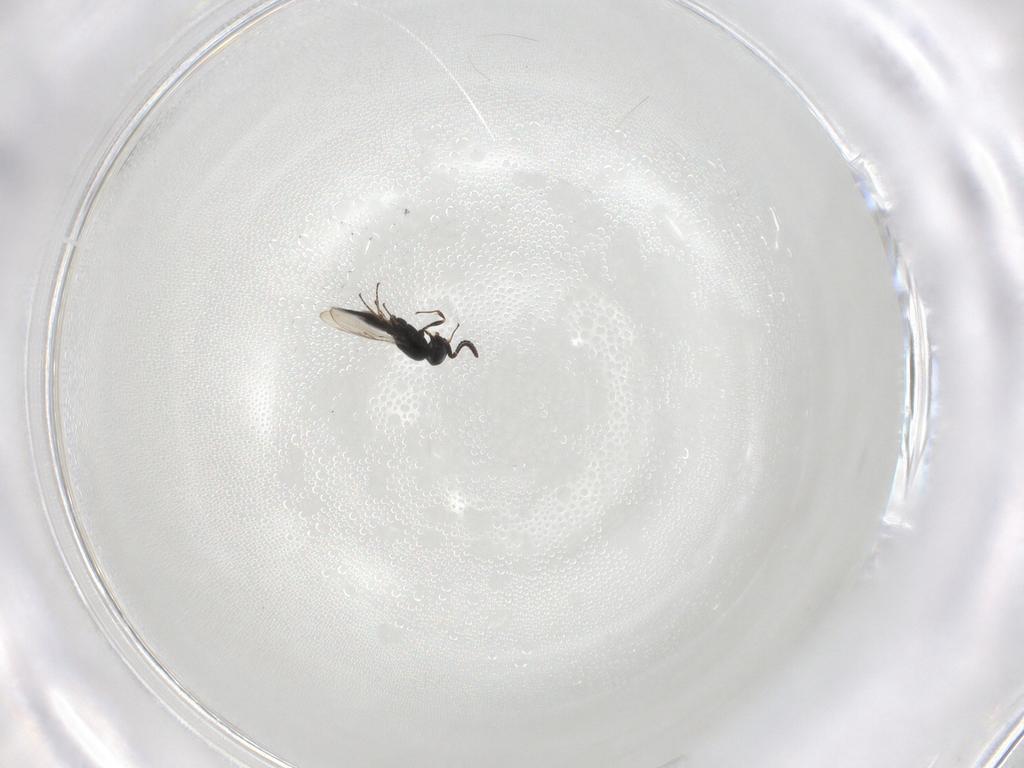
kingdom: Animalia
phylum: Arthropoda
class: Insecta
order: Hymenoptera
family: Scelionidae
